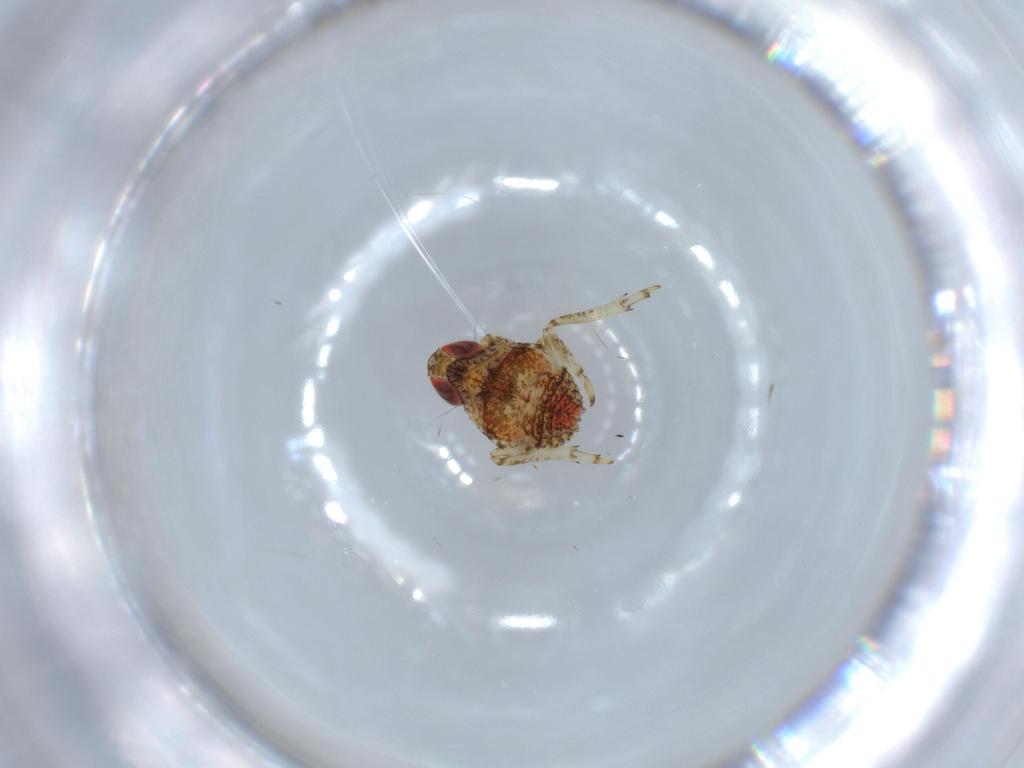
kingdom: Animalia
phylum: Arthropoda
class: Insecta
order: Hemiptera
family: Issidae
